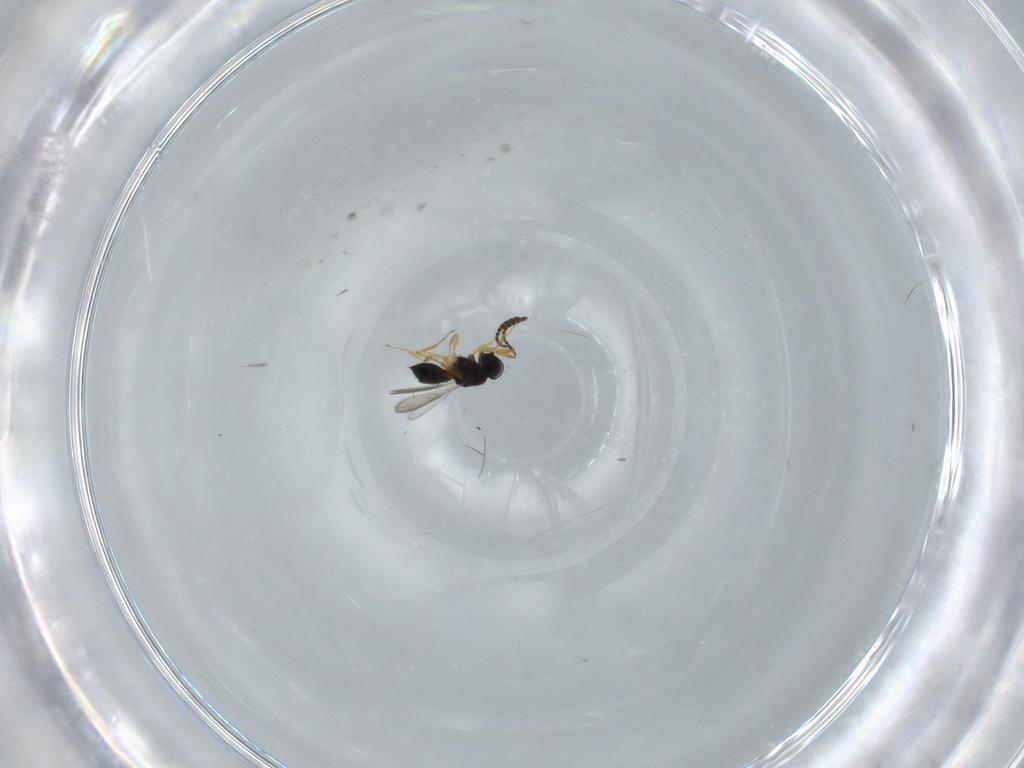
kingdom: Animalia
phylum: Arthropoda
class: Insecta
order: Hymenoptera
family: Scelionidae
